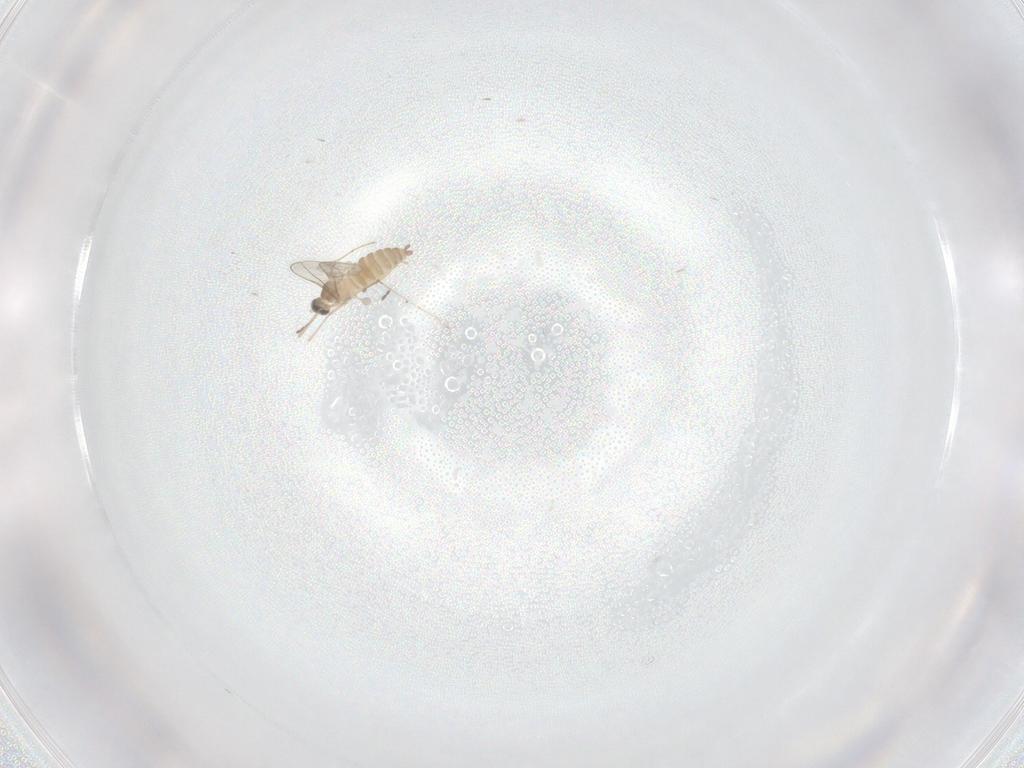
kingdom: Animalia
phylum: Arthropoda
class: Insecta
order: Diptera
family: Cecidomyiidae
